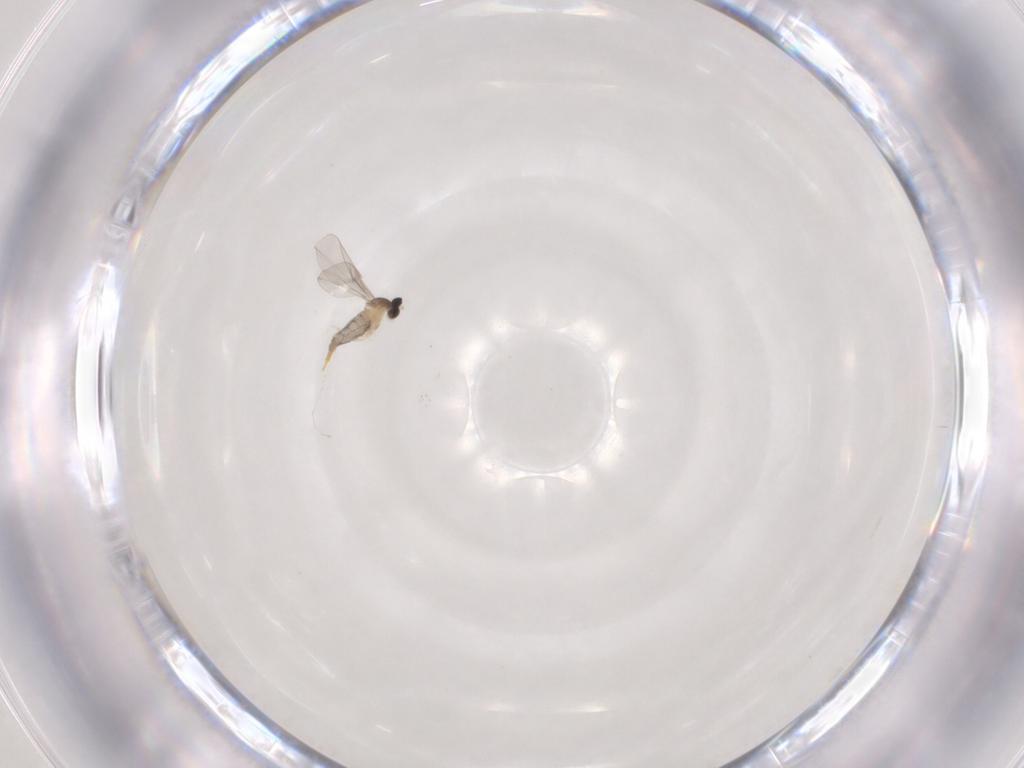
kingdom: Animalia
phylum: Arthropoda
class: Insecta
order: Diptera
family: Cecidomyiidae
